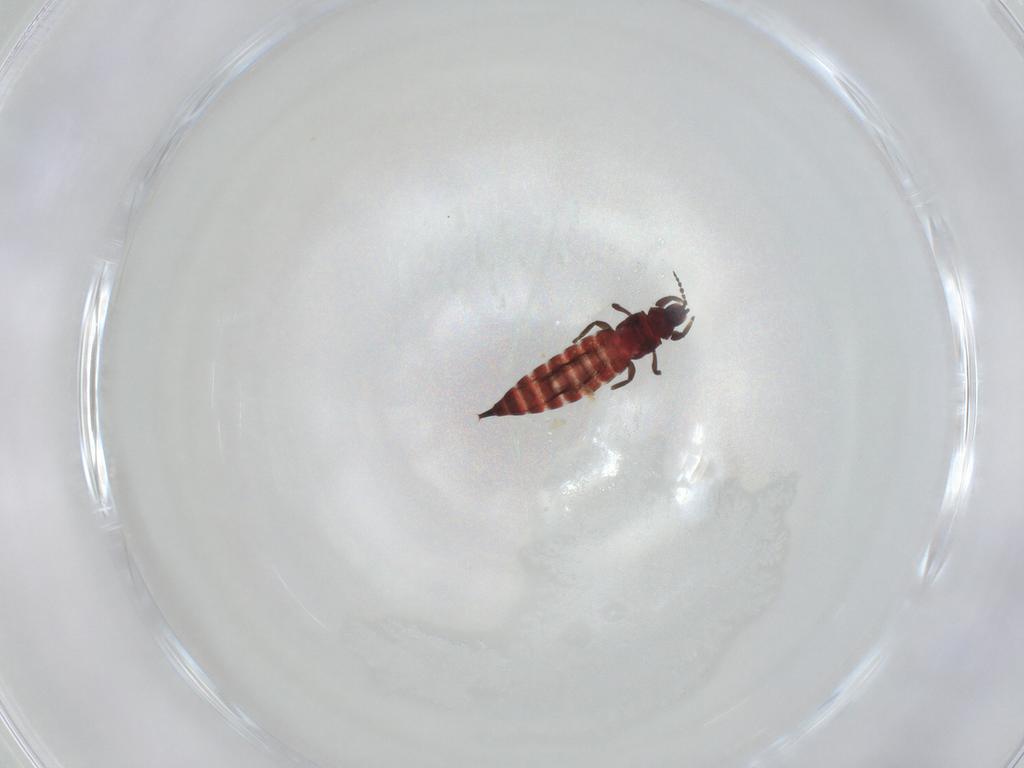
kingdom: Animalia
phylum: Arthropoda
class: Insecta
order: Thysanoptera
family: Phlaeothripidae
